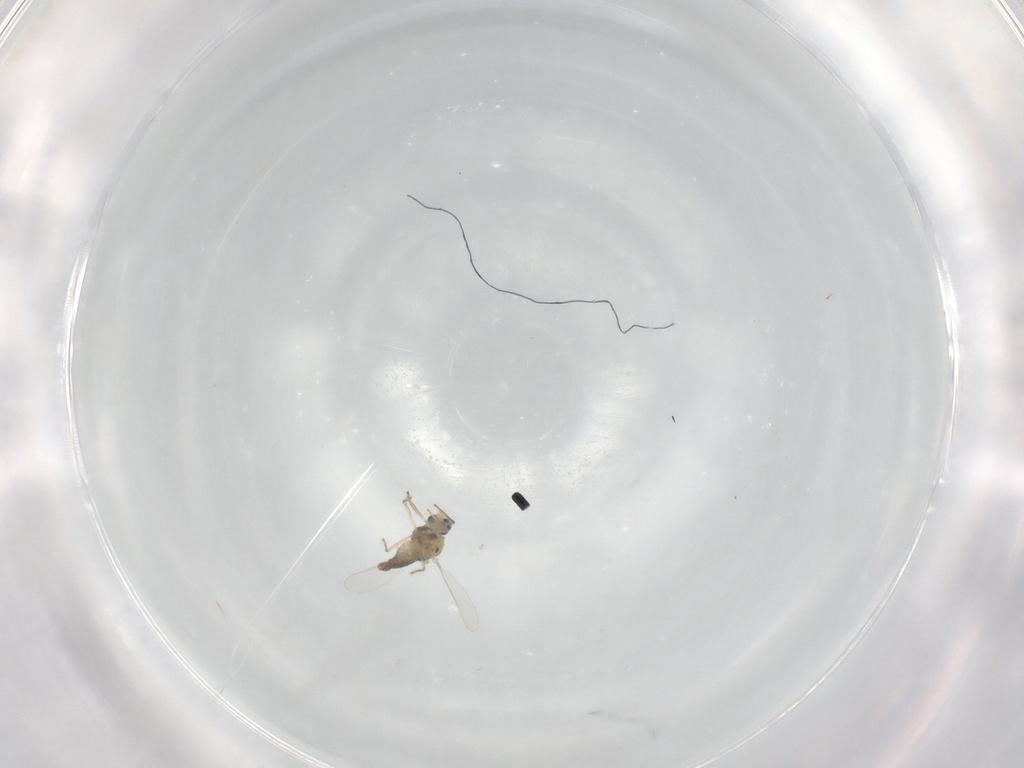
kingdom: Animalia
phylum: Arthropoda
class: Insecta
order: Diptera
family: Chironomidae
